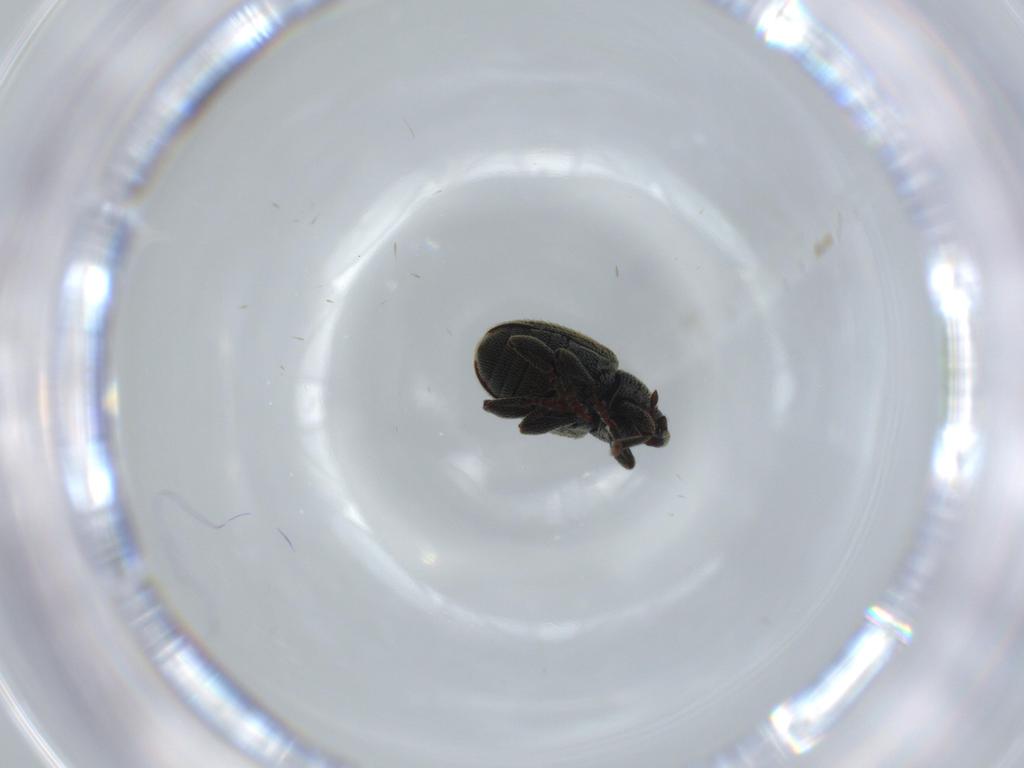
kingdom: Animalia
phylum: Arthropoda
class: Insecta
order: Coleoptera
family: Curculionidae
